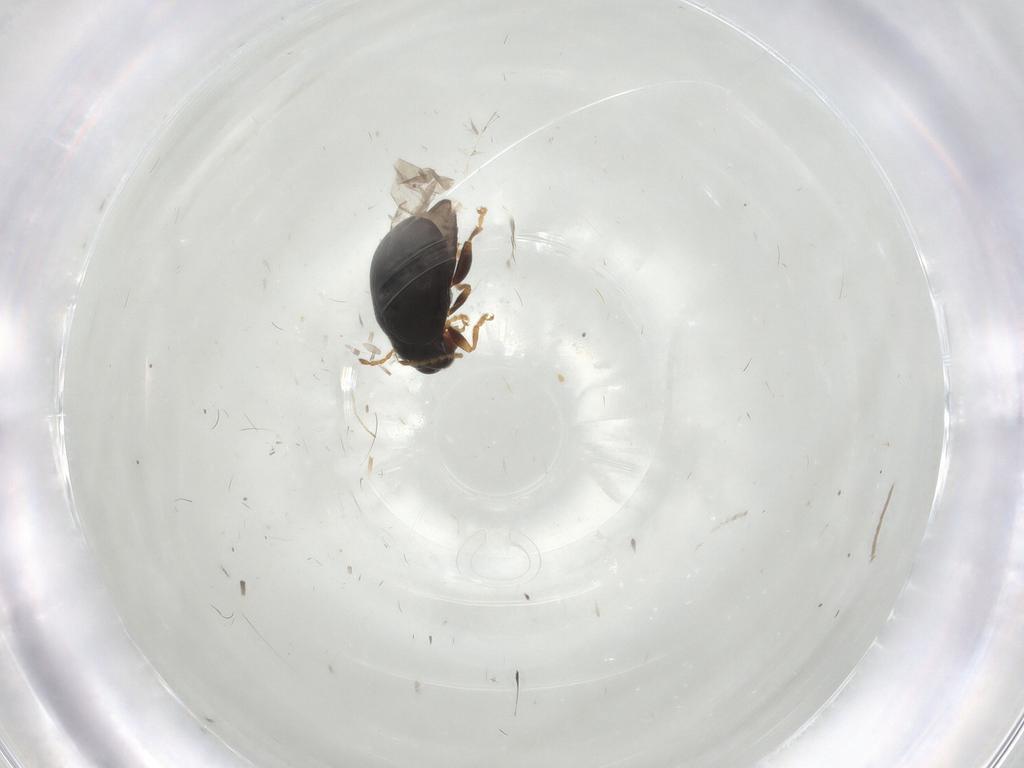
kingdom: Animalia
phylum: Arthropoda
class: Insecta
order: Coleoptera
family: Chrysomelidae
